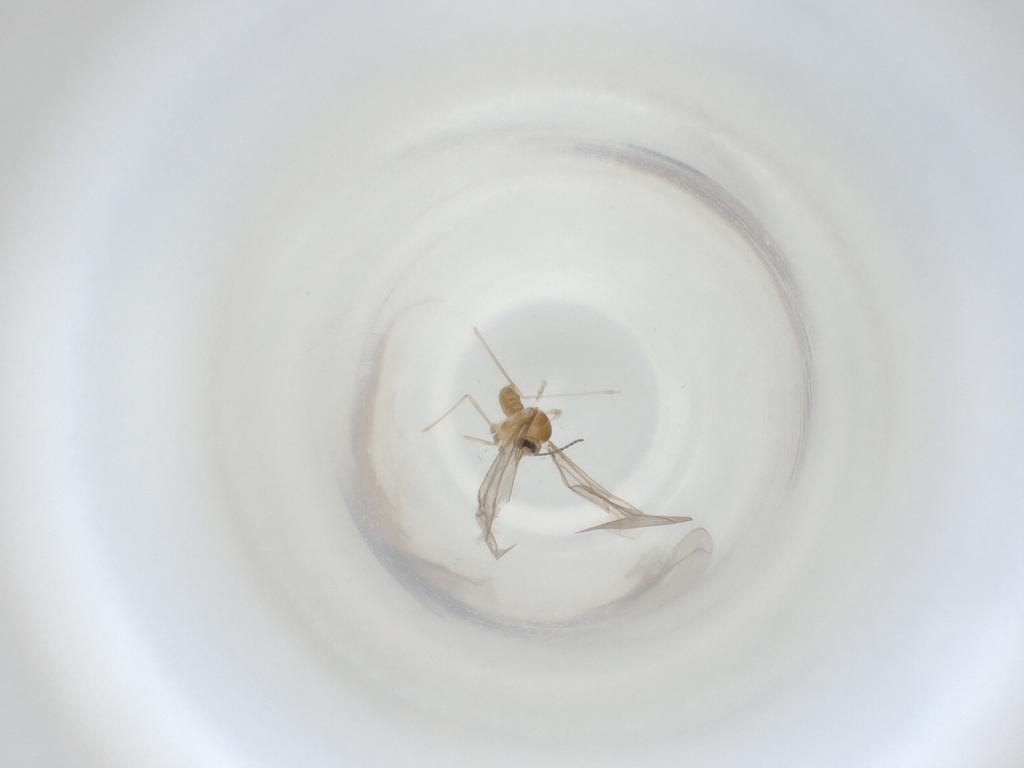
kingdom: Animalia
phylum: Arthropoda
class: Insecta
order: Diptera
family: Cecidomyiidae
